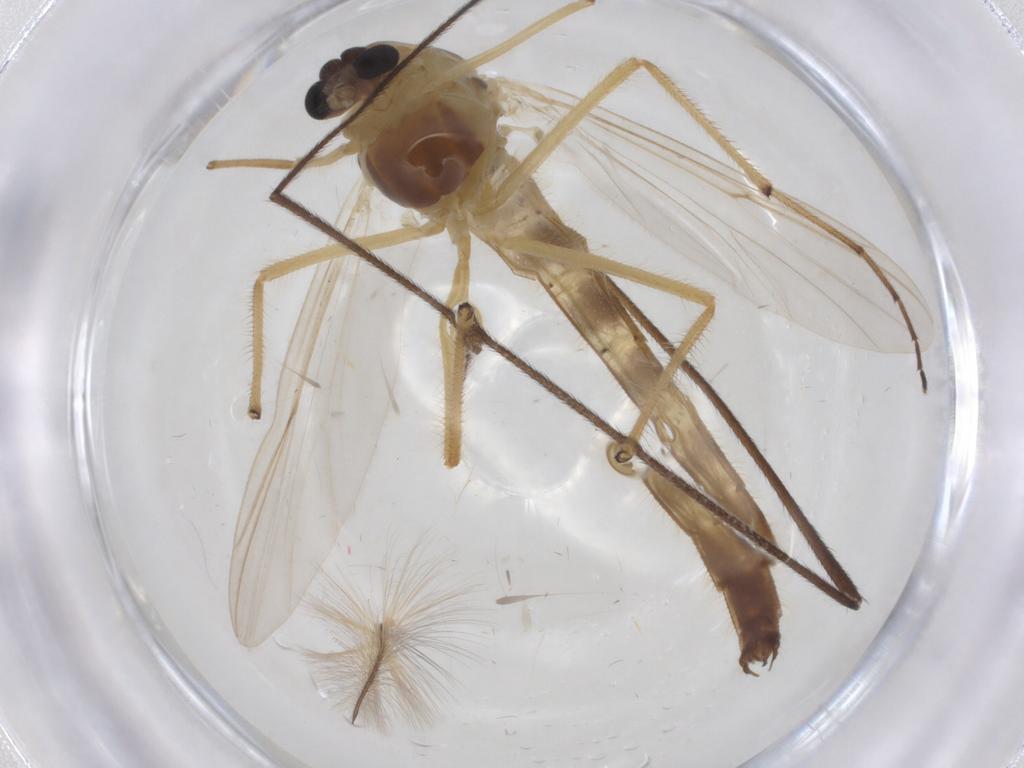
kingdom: Animalia
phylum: Arthropoda
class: Insecta
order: Diptera
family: Chironomidae
